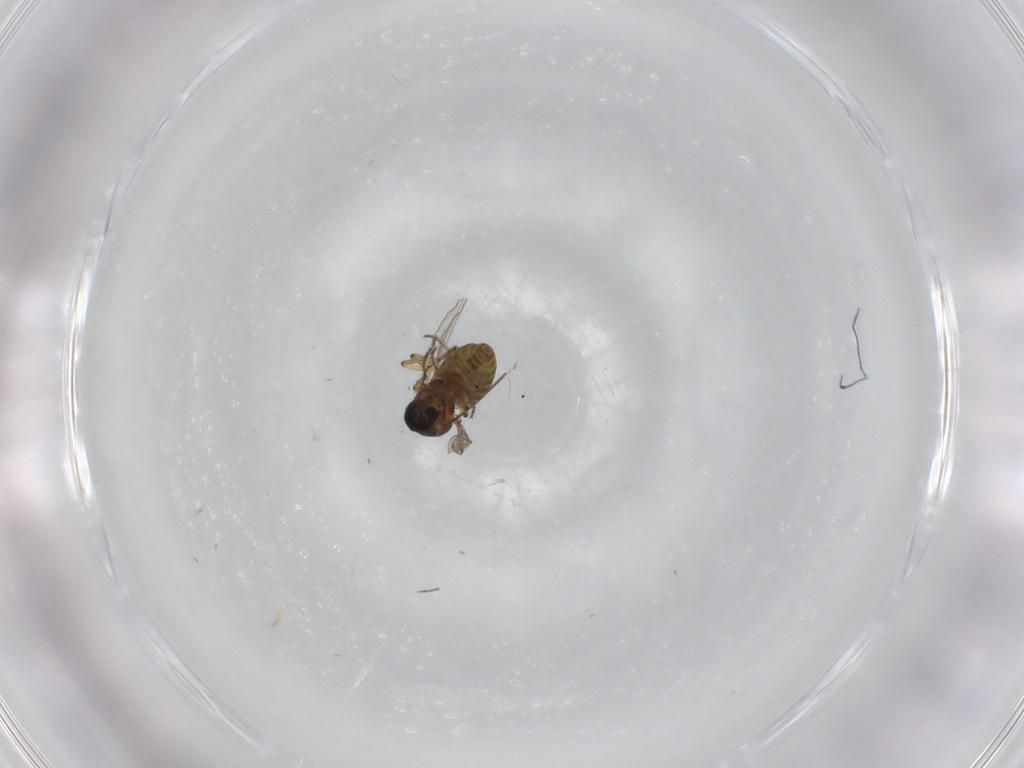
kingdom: Animalia
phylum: Arthropoda
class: Insecta
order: Diptera
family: Ceratopogonidae
